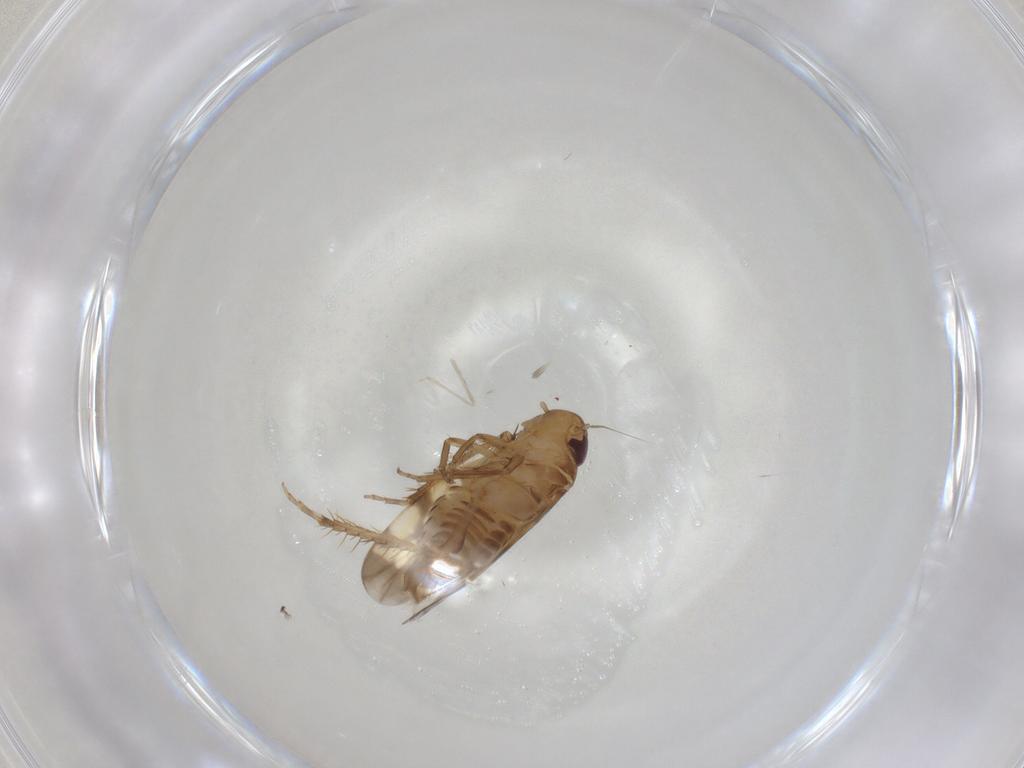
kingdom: Animalia
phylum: Arthropoda
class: Insecta
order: Hemiptera
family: Cicadellidae
